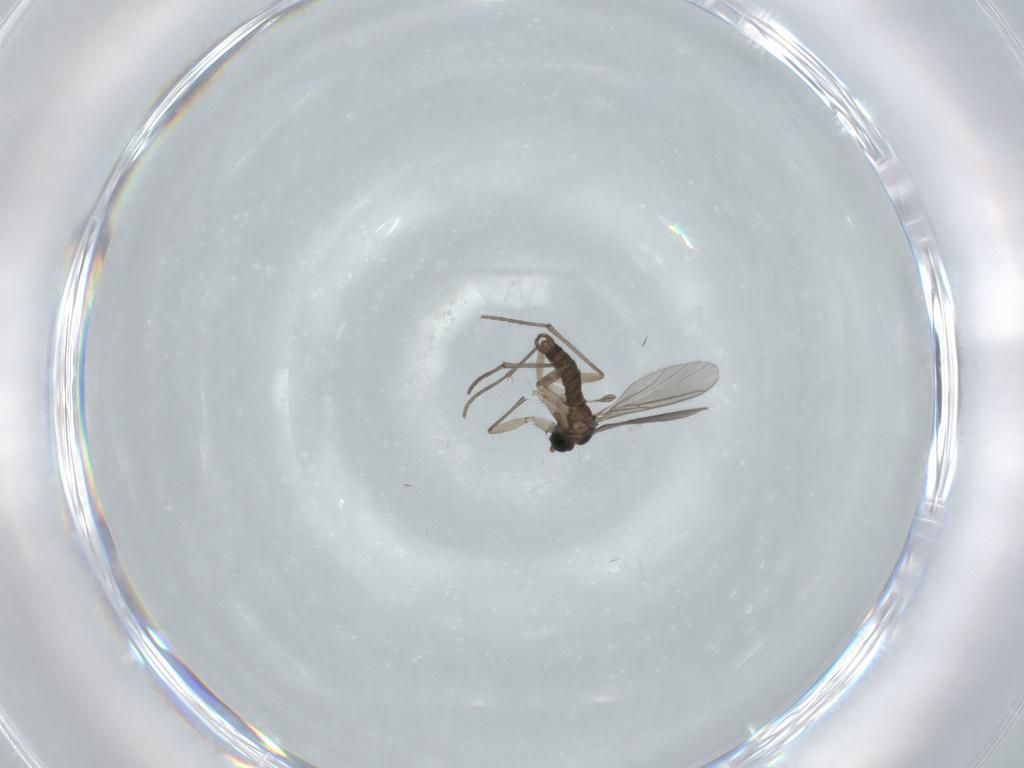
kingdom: Animalia
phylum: Arthropoda
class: Insecta
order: Diptera
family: Sciaridae
